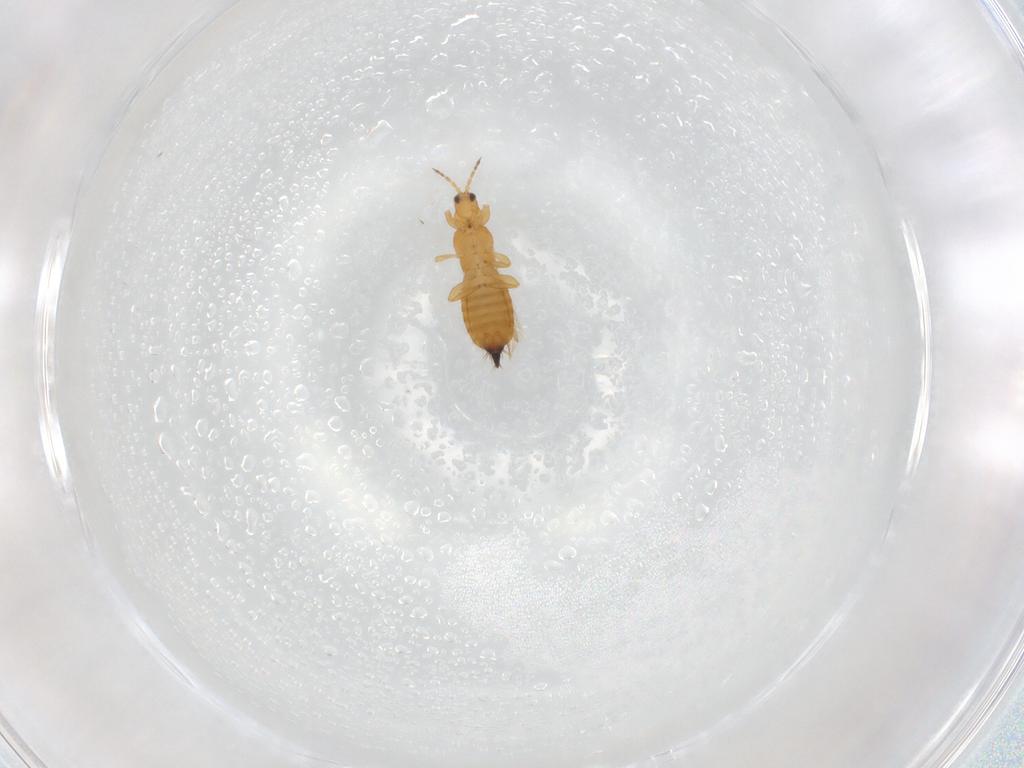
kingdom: Animalia
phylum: Arthropoda
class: Insecta
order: Thysanoptera
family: Thripidae
